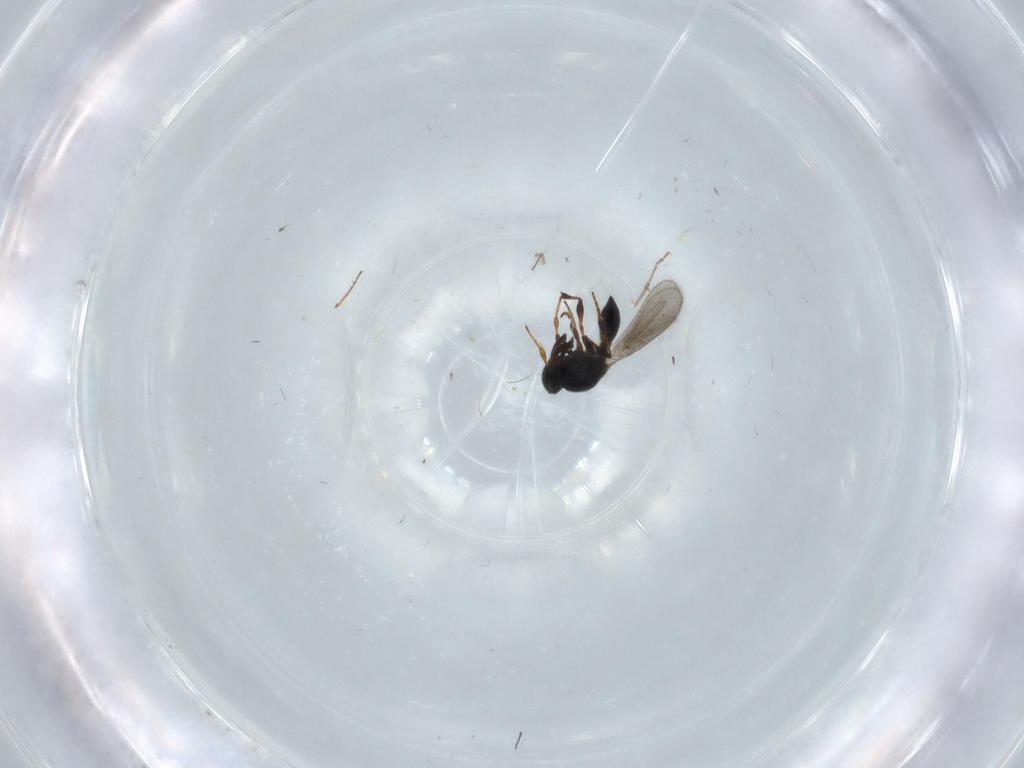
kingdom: Animalia
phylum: Arthropoda
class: Insecta
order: Hymenoptera
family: Platygastridae
